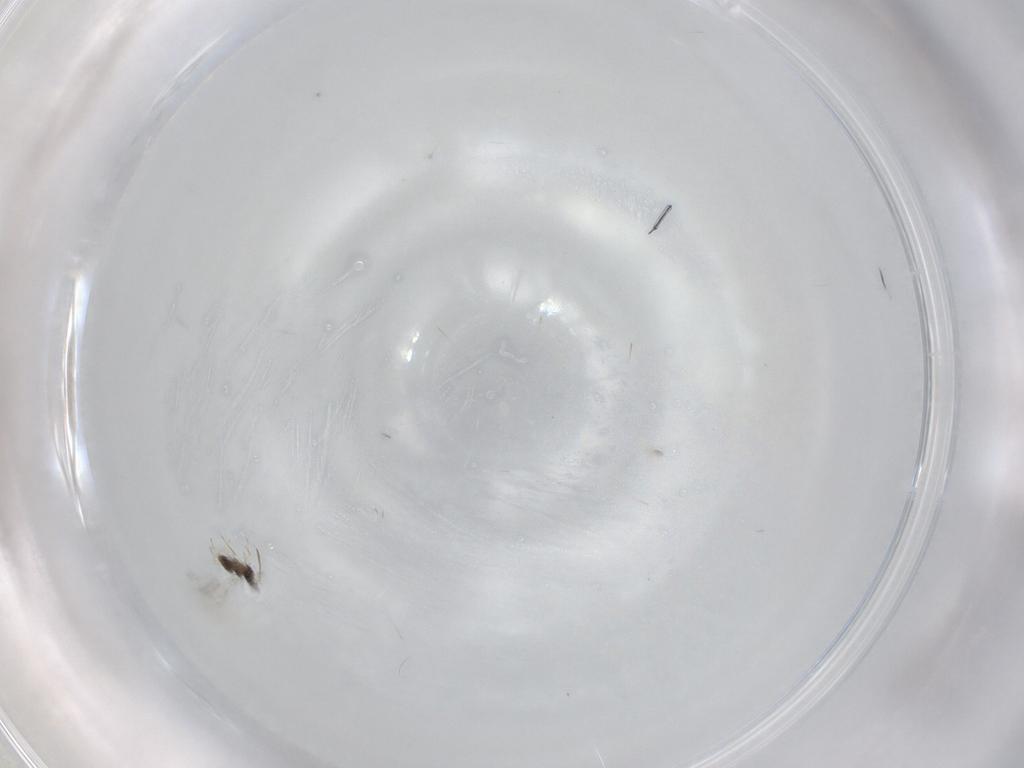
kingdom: Animalia
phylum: Arthropoda
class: Insecta
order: Hymenoptera
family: Mymaridae
